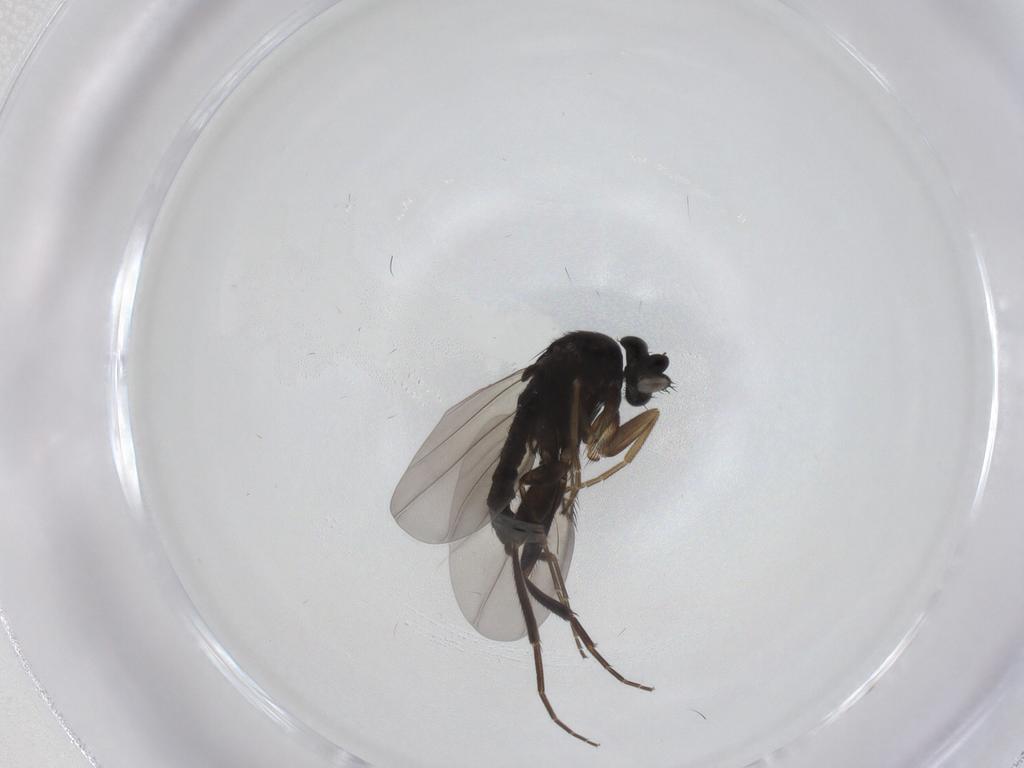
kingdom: Animalia
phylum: Arthropoda
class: Insecta
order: Diptera
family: Phoridae
